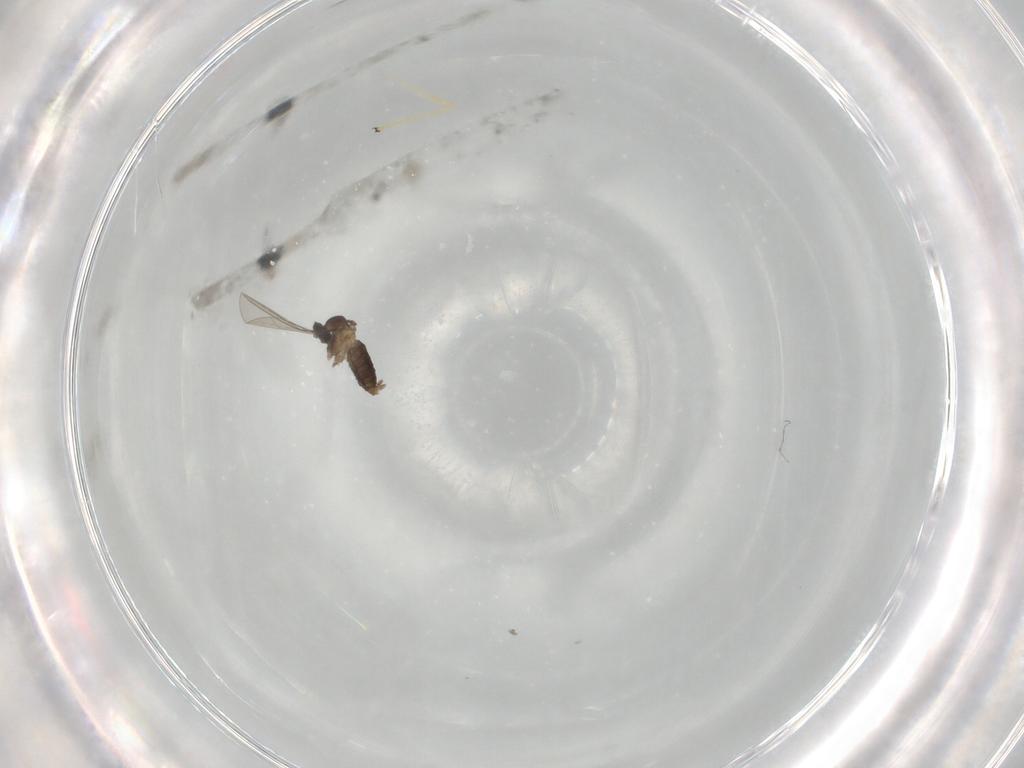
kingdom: Animalia
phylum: Arthropoda
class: Insecta
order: Diptera
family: Cecidomyiidae
